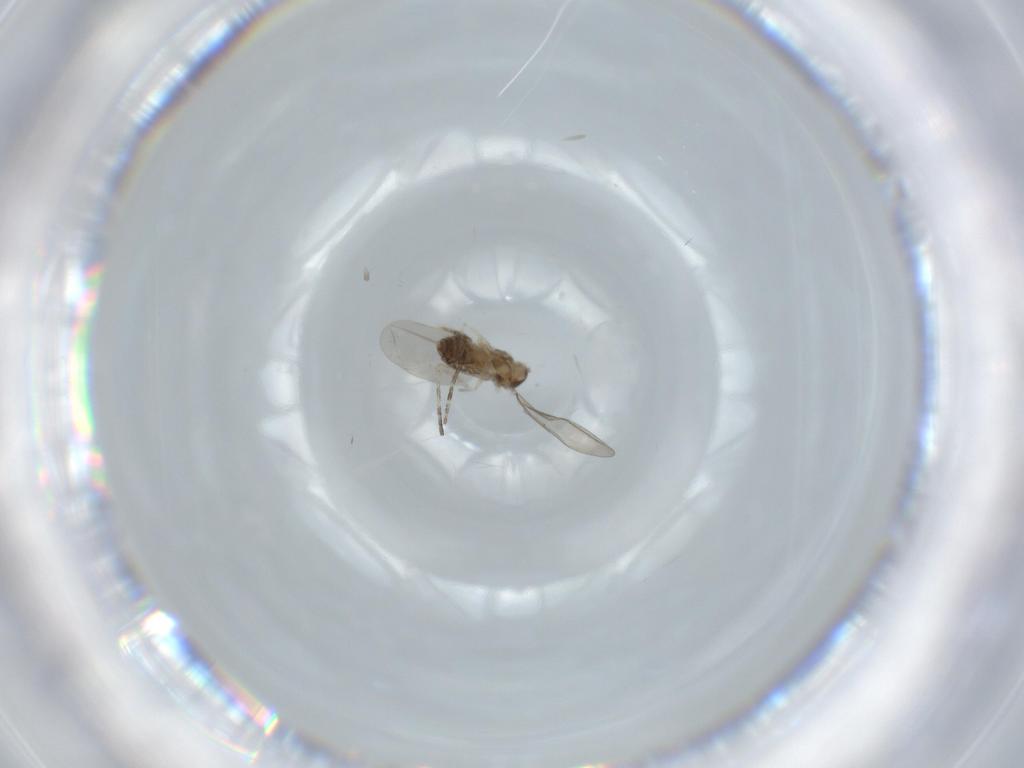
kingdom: Animalia
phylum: Arthropoda
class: Insecta
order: Diptera
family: Cecidomyiidae
